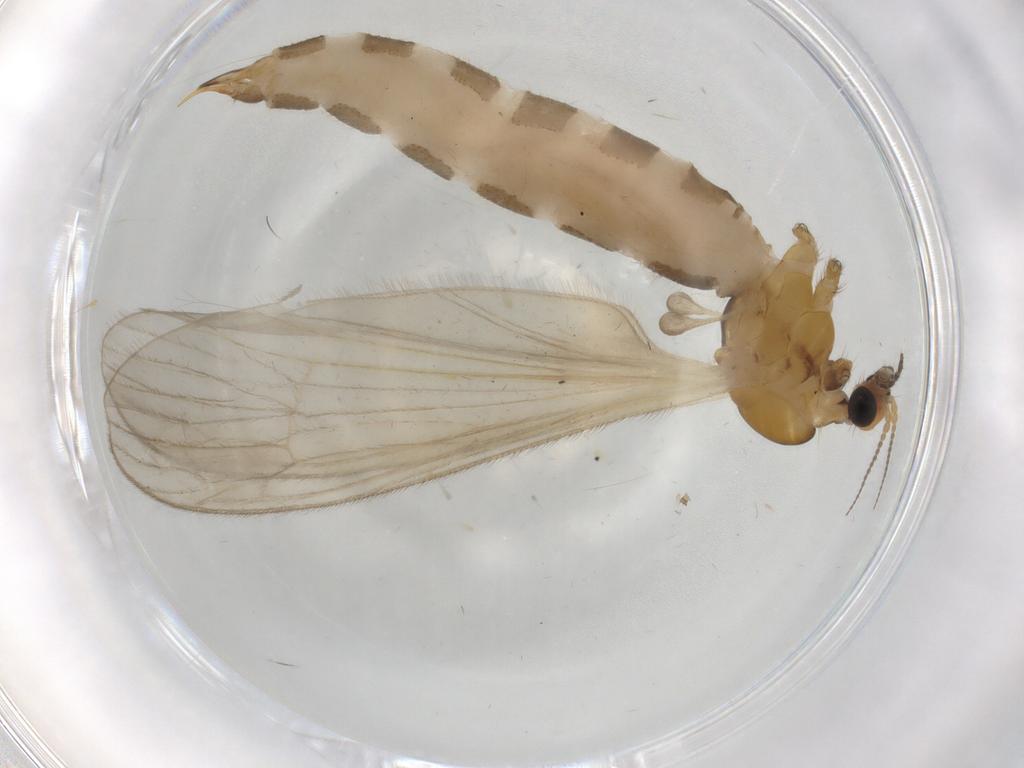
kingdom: Animalia
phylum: Arthropoda
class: Insecta
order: Diptera
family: Limoniidae
